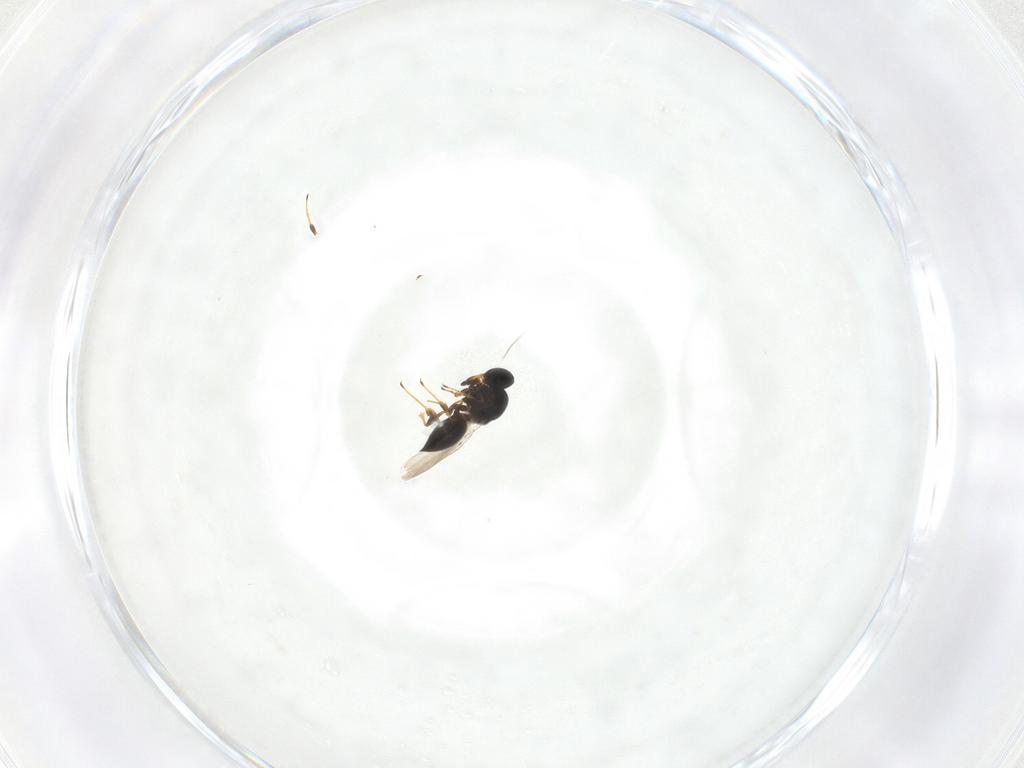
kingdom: Animalia
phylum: Arthropoda
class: Insecta
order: Hymenoptera
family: Platygastridae
